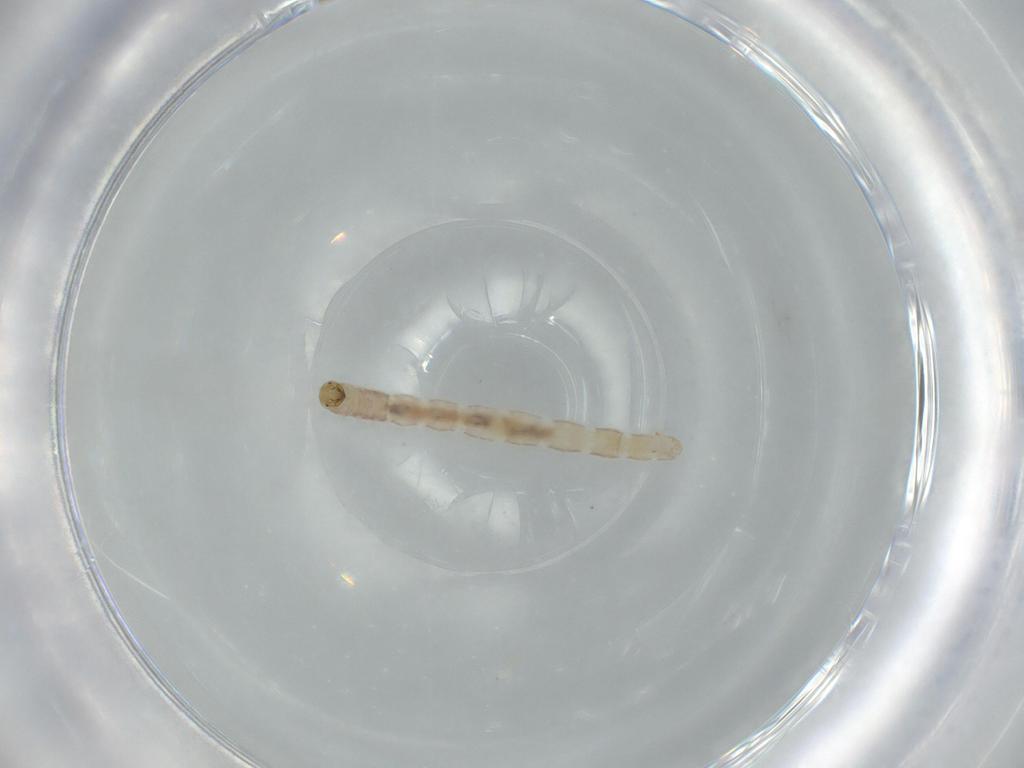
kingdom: Animalia
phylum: Arthropoda
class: Insecta
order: Diptera
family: Chironomidae
